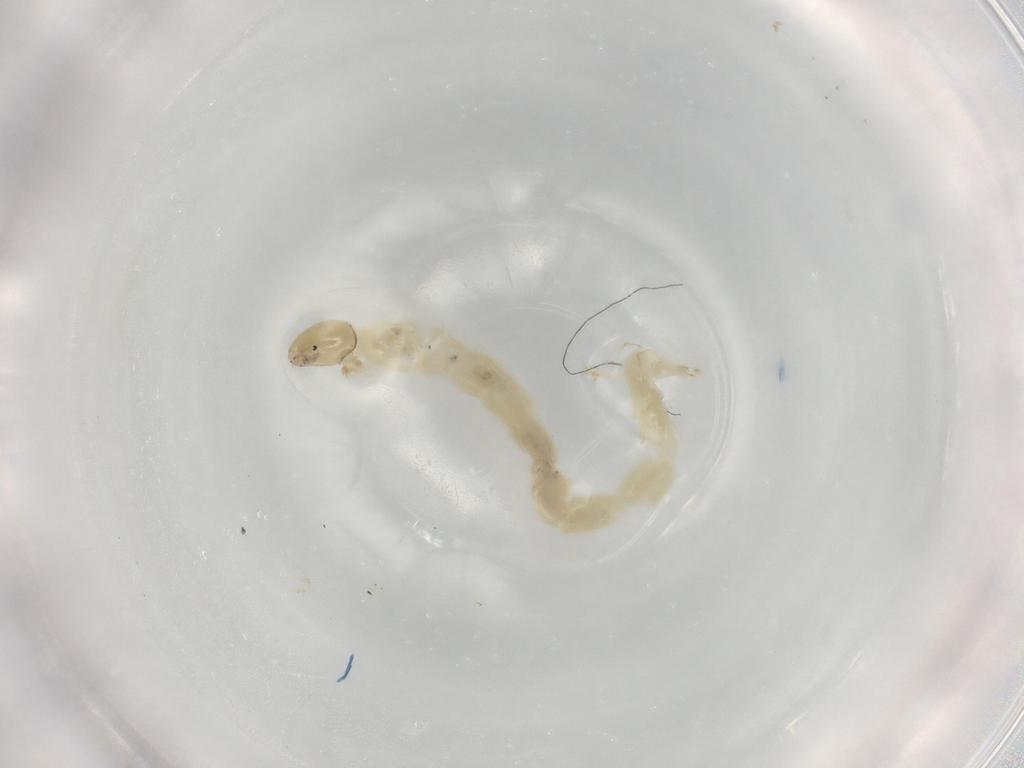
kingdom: Animalia
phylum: Arthropoda
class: Insecta
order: Diptera
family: Chironomidae
